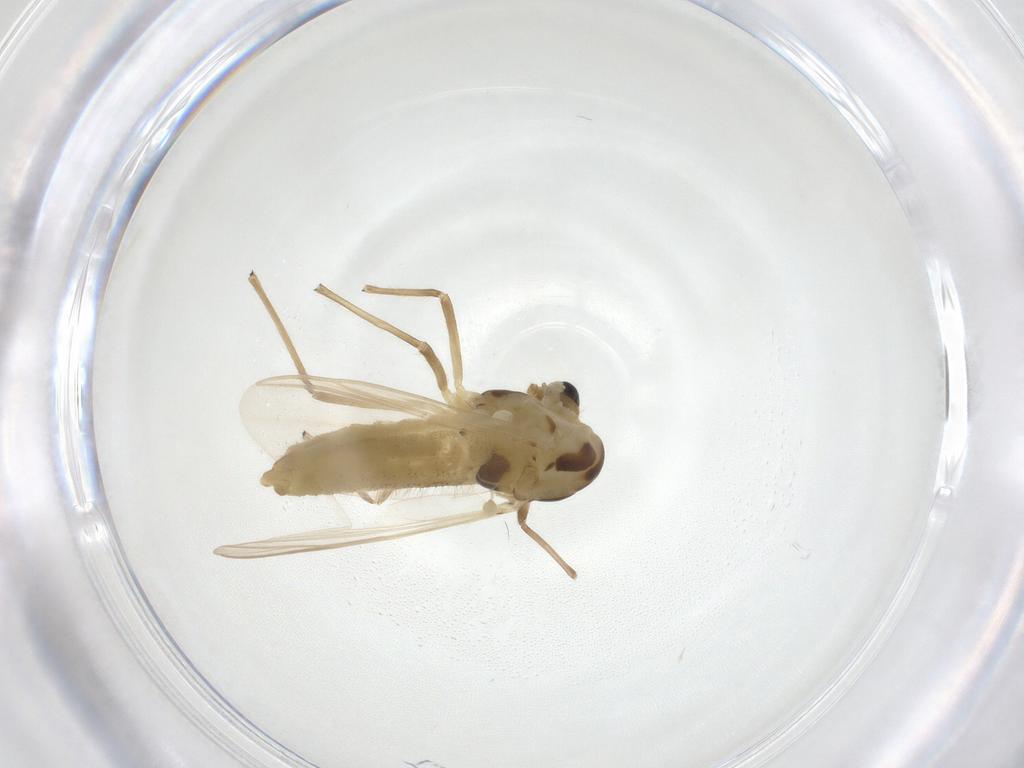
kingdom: Animalia
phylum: Arthropoda
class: Insecta
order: Diptera
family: Chironomidae
